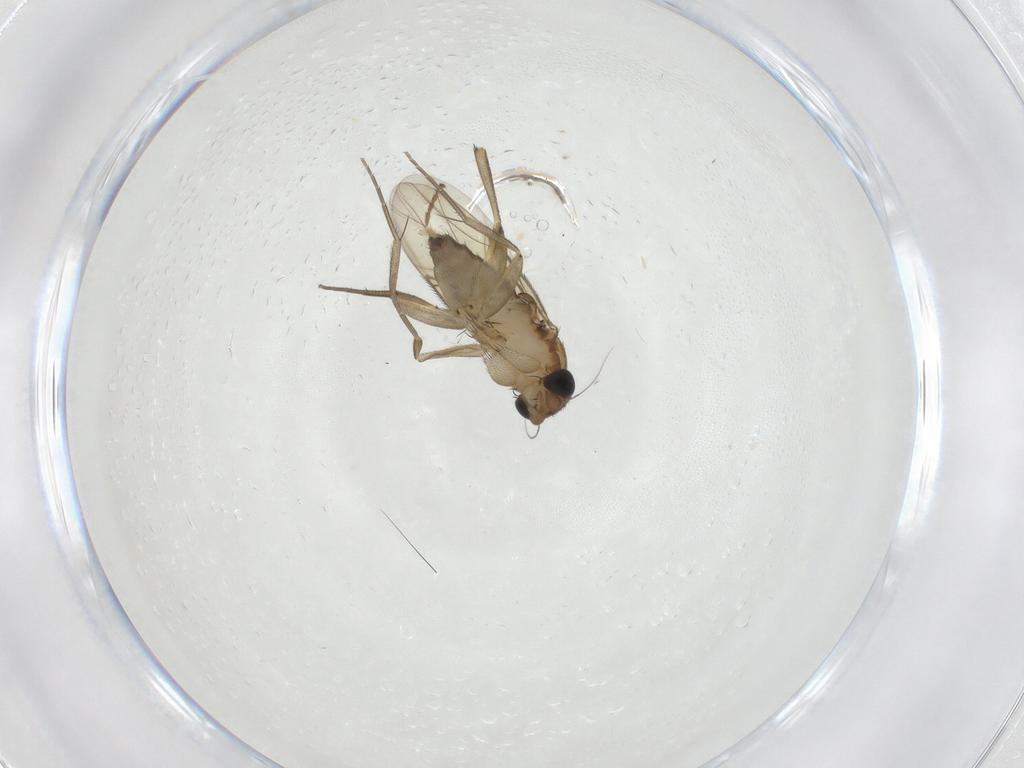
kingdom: Animalia
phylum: Arthropoda
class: Insecta
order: Diptera
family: Phoridae
